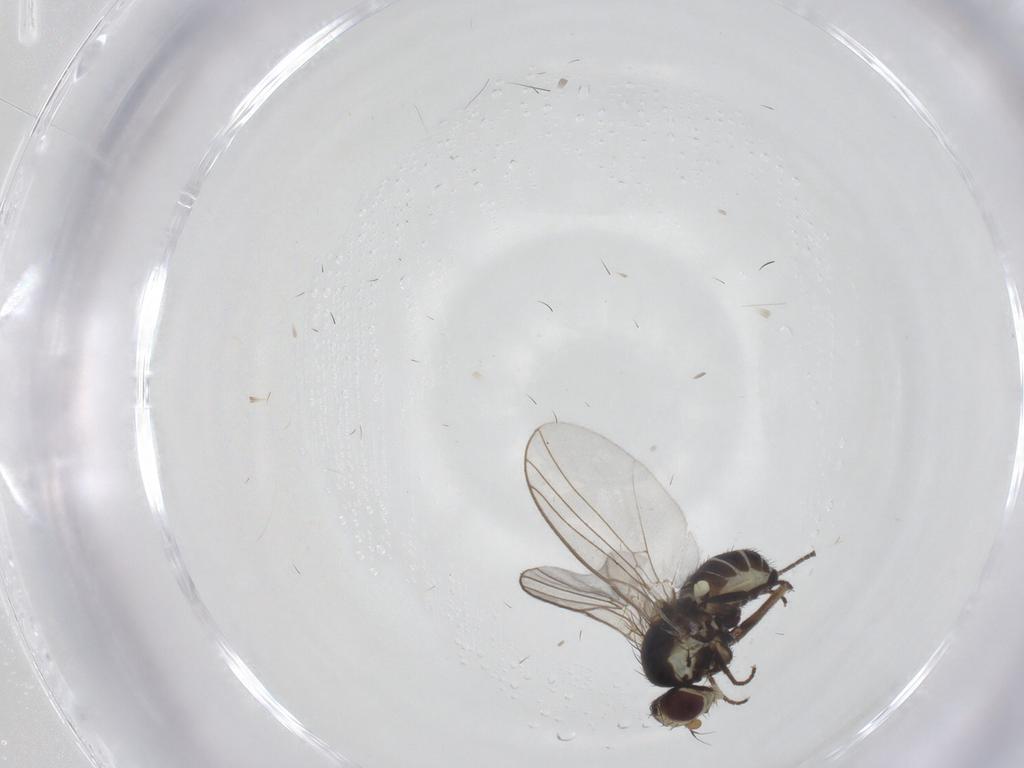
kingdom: Animalia
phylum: Arthropoda
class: Insecta
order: Diptera
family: Agromyzidae
